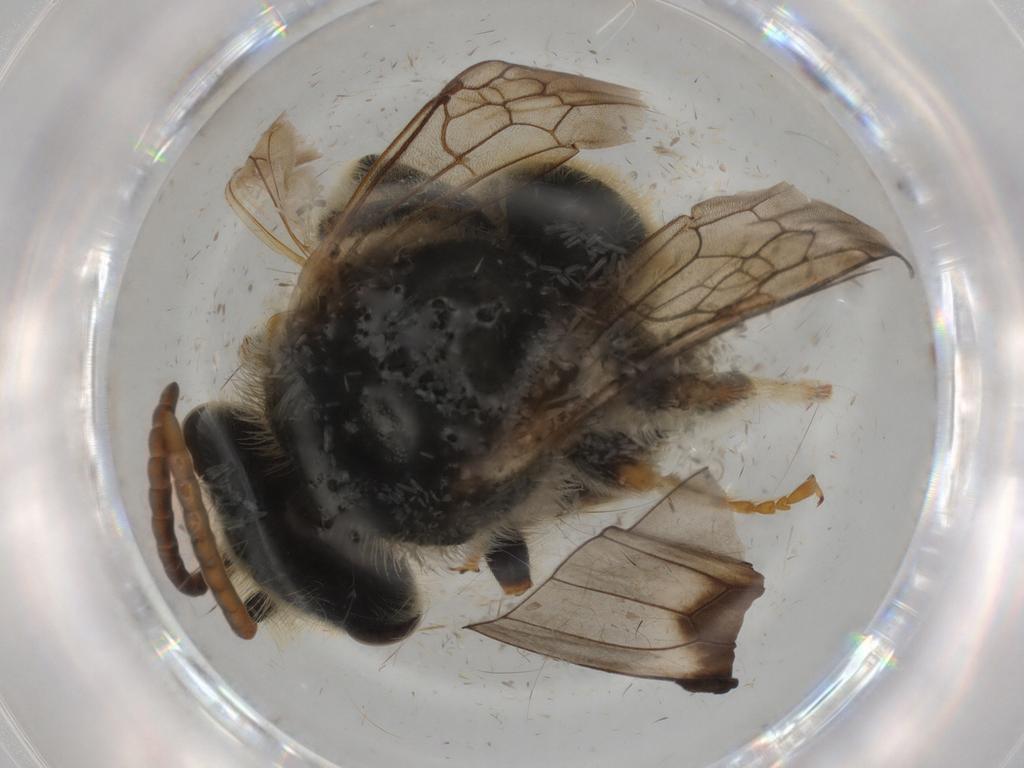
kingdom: Animalia
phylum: Arthropoda
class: Insecta
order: Hymenoptera
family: Halictidae
